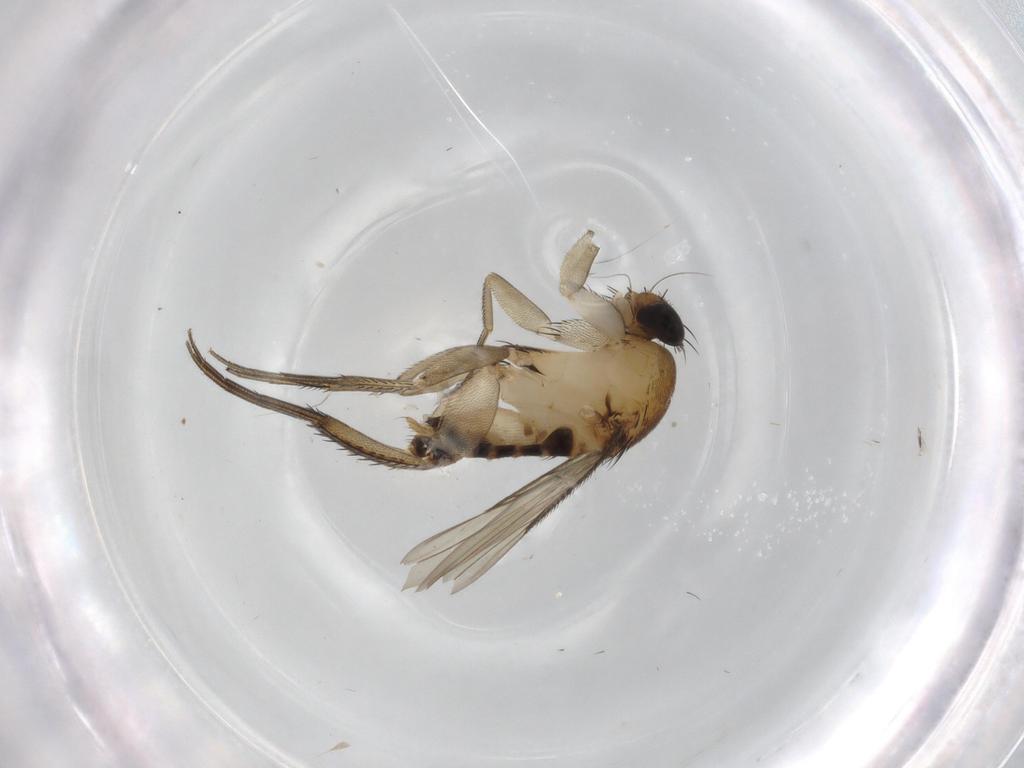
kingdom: Animalia
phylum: Arthropoda
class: Insecta
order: Diptera
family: Phoridae
